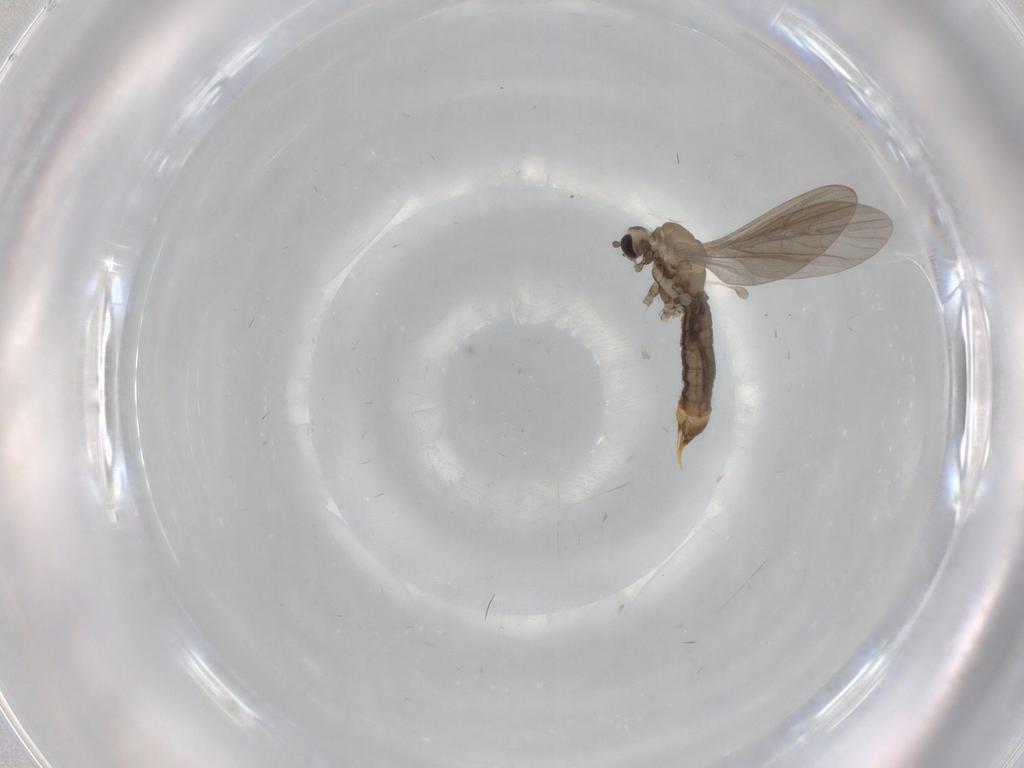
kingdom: Animalia
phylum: Arthropoda
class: Insecta
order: Diptera
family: Limoniidae
